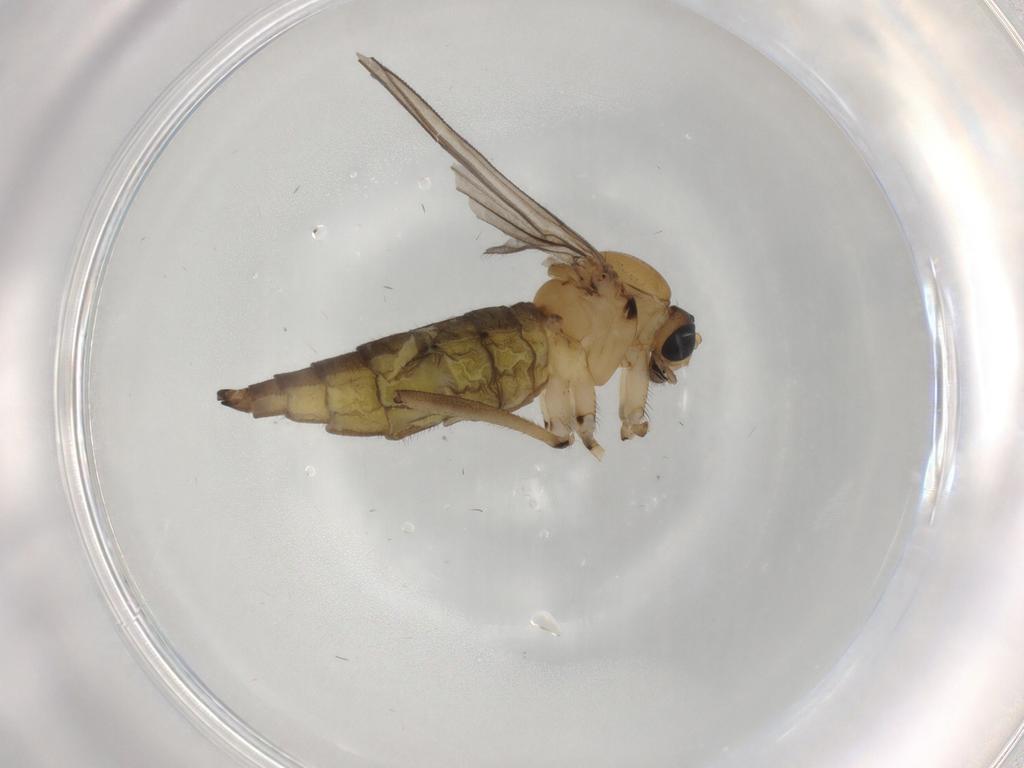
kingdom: Animalia
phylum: Arthropoda
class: Insecta
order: Diptera
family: Sciaridae
